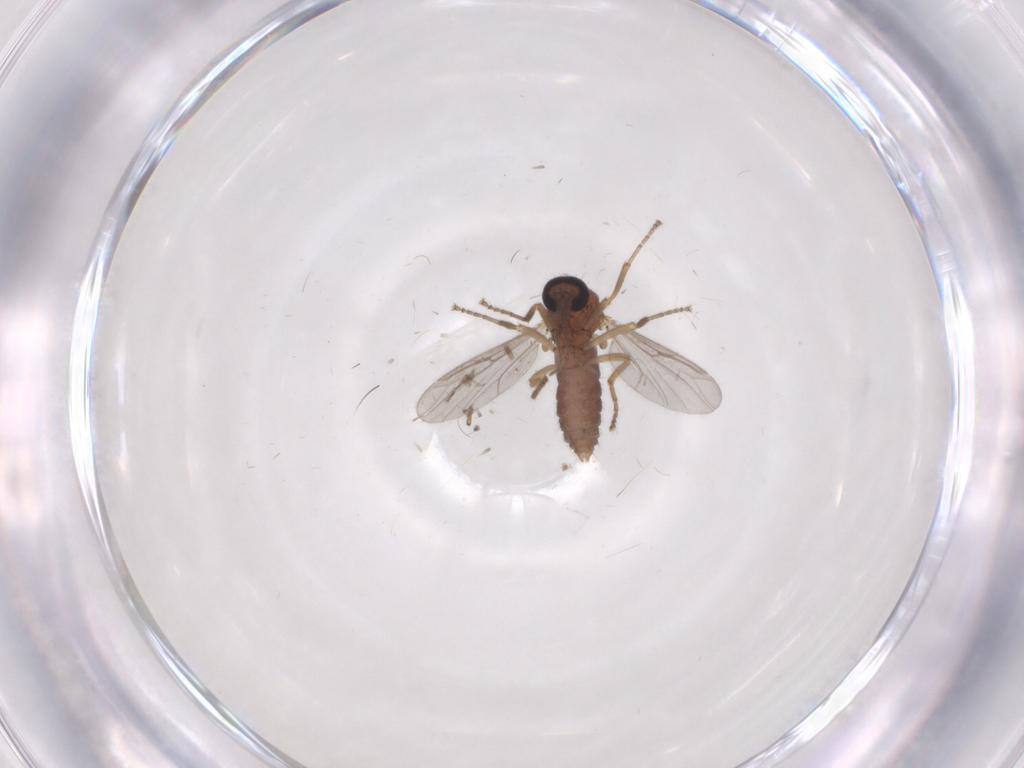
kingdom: Animalia
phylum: Arthropoda
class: Insecta
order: Diptera
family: Ceratopogonidae
